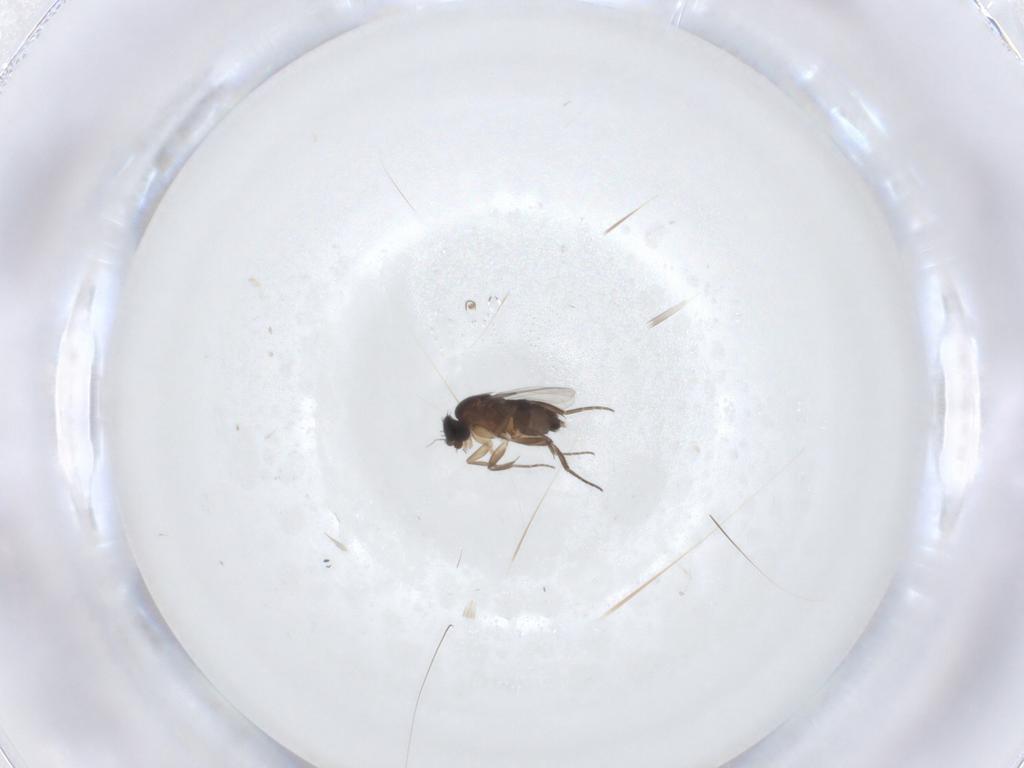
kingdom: Animalia
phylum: Arthropoda
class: Insecta
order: Diptera
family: Phoridae
